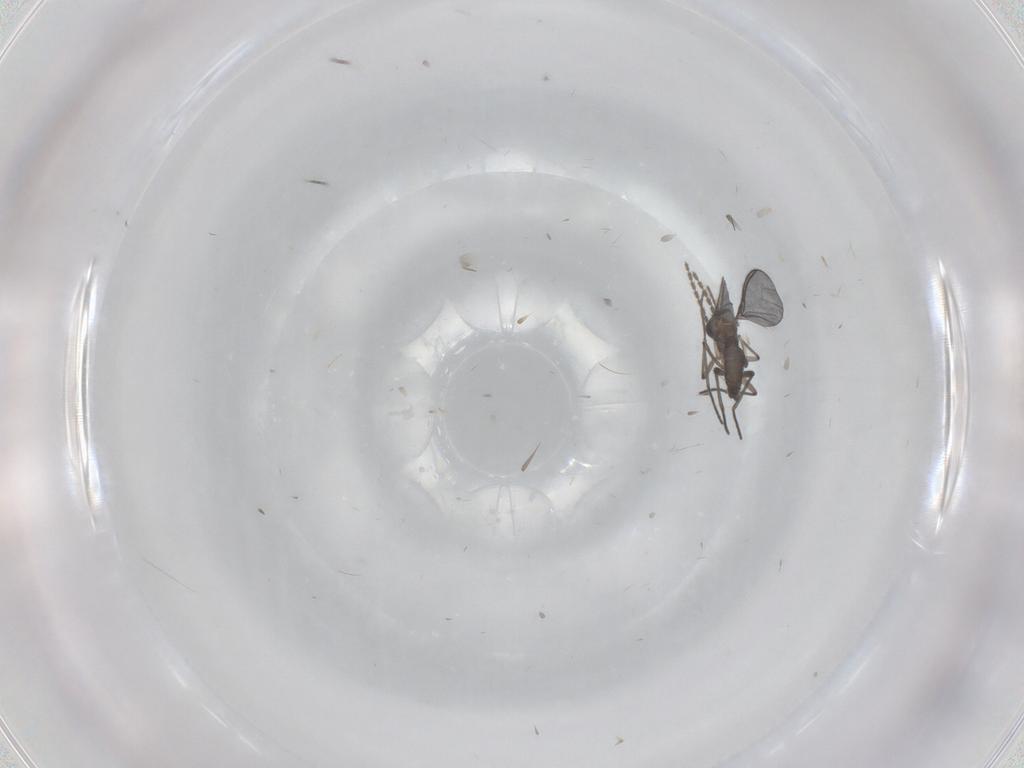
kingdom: Animalia
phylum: Arthropoda
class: Insecta
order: Diptera
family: Sciaridae
